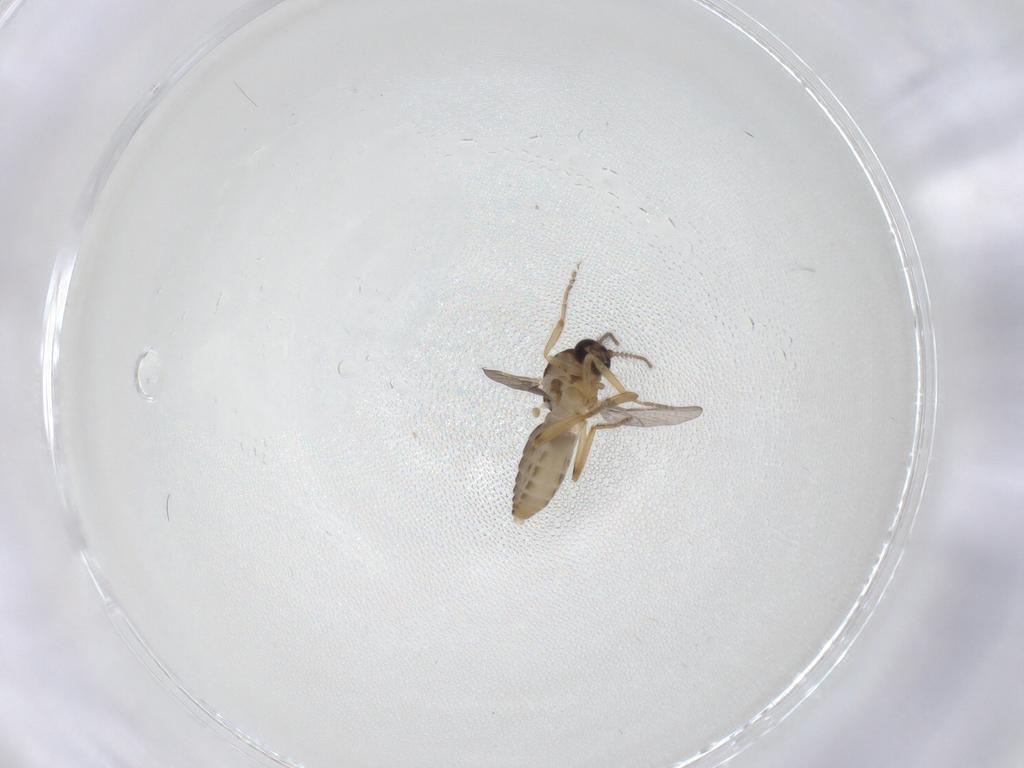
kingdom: Animalia
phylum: Arthropoda
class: Insecta
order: Diptera
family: Ceratopogonidae
